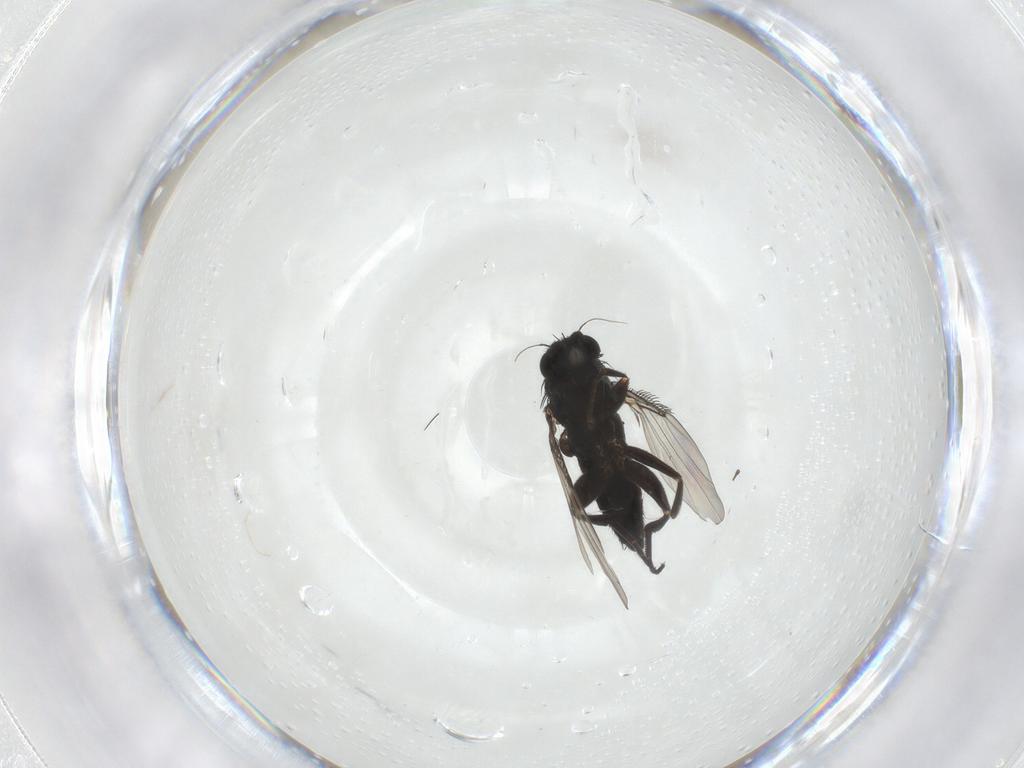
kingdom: Animalia
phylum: Arthropoda
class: Insecta
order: Diptera
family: Phoridae
